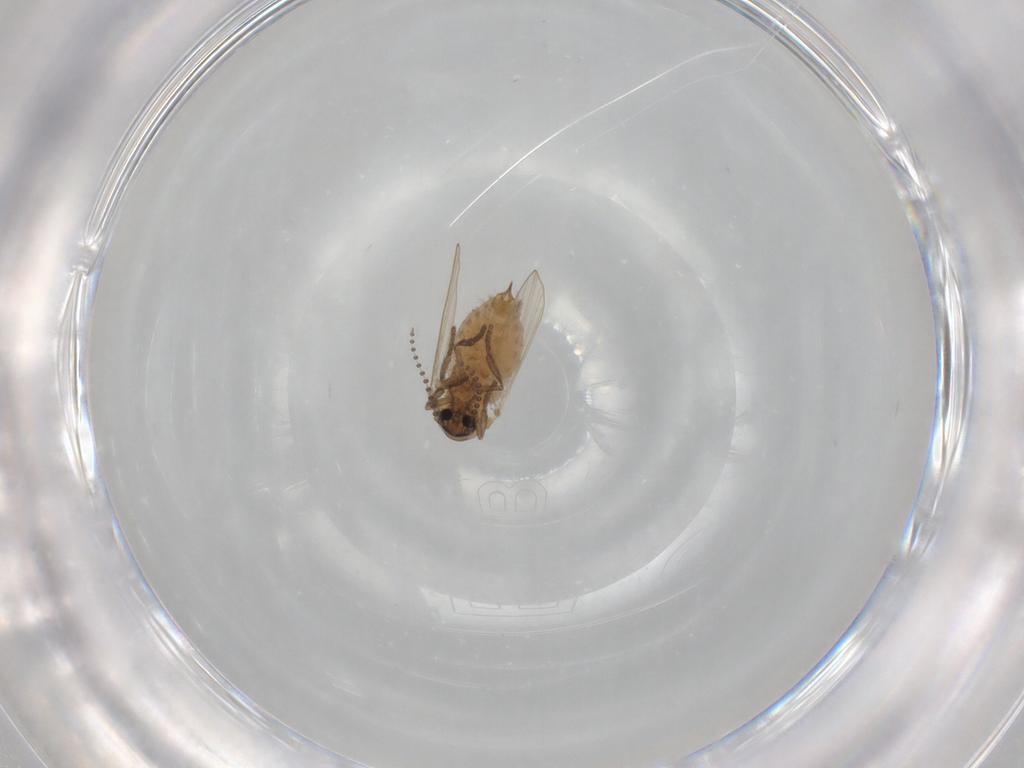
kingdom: Animalia
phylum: Arthropoda
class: Insecta
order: Diptera
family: Psychodidae
